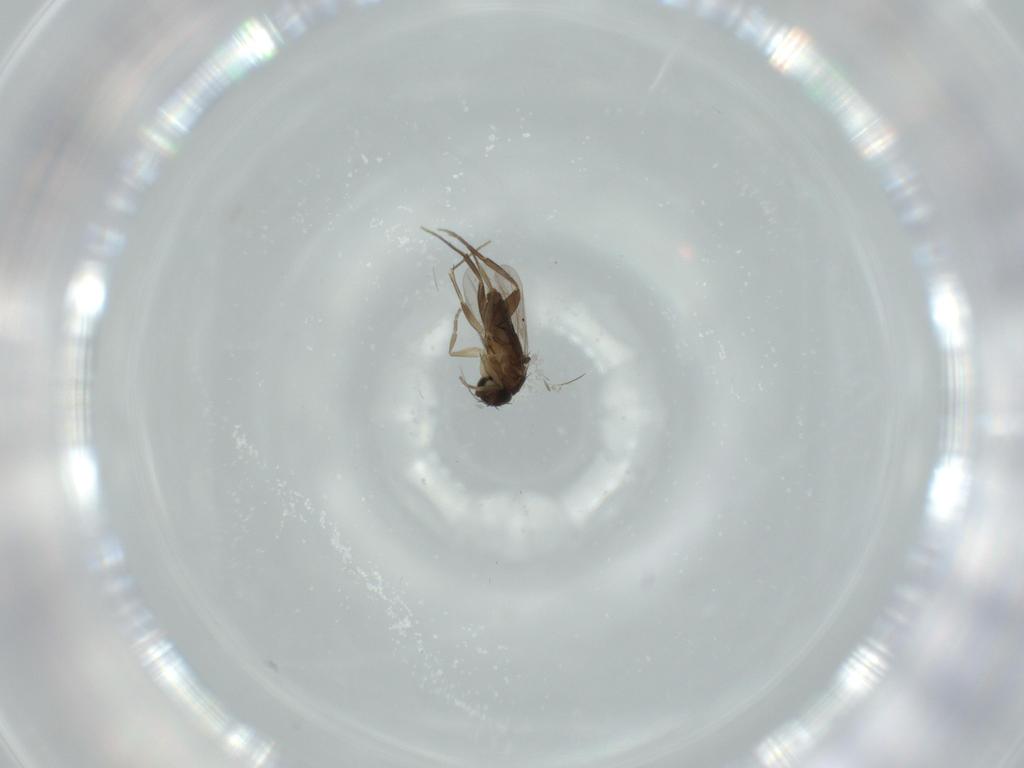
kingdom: Animalia
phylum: Arthropoda
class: Insecta
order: Diptera
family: Phoridae
